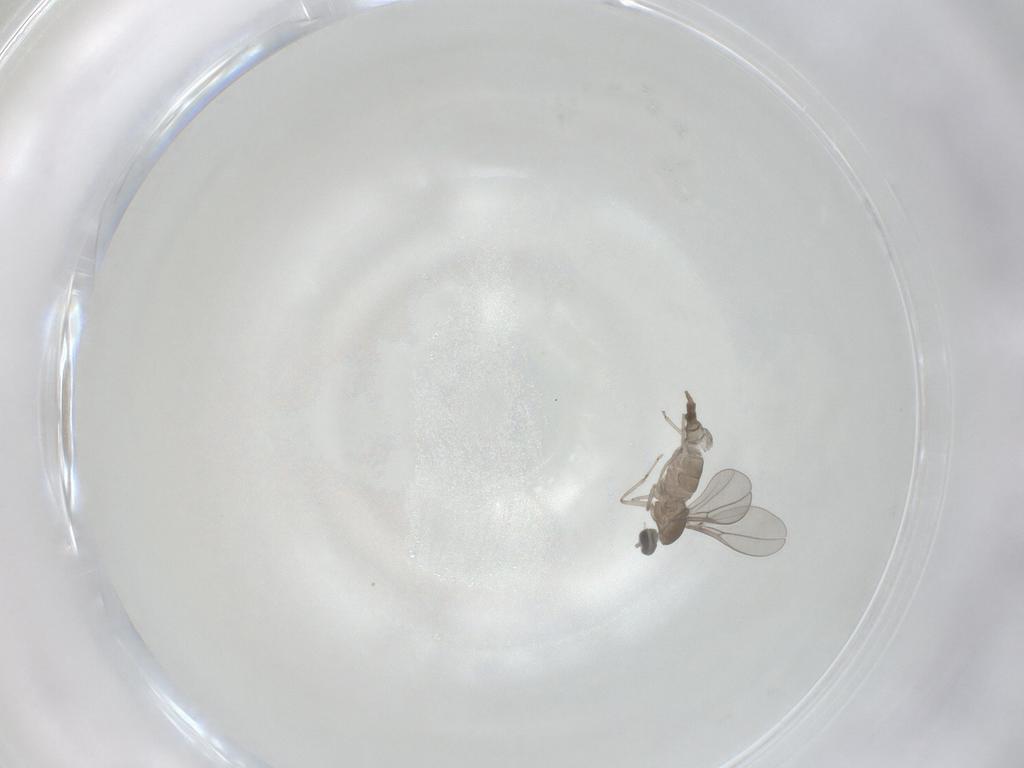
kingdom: Animalia
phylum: Arthropoda
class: Insecta
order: Diptera
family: Cecidomyiidae
